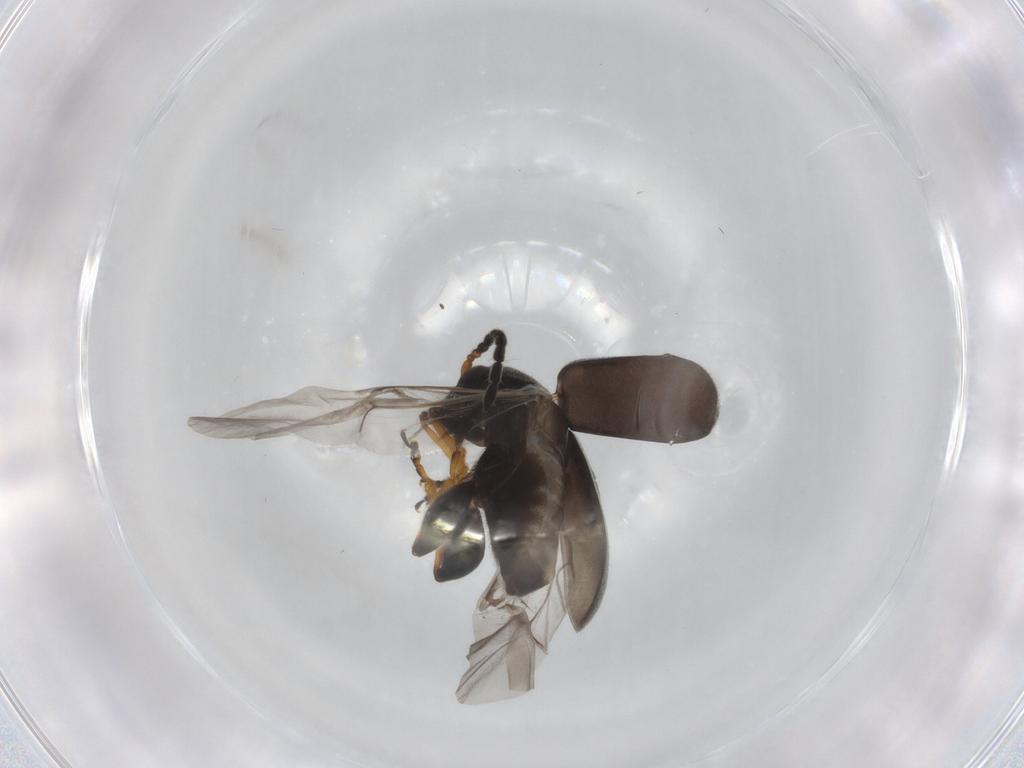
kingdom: Animalia
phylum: Arthropoda
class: Insecta
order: Coleoptera
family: Chrysomelidae
